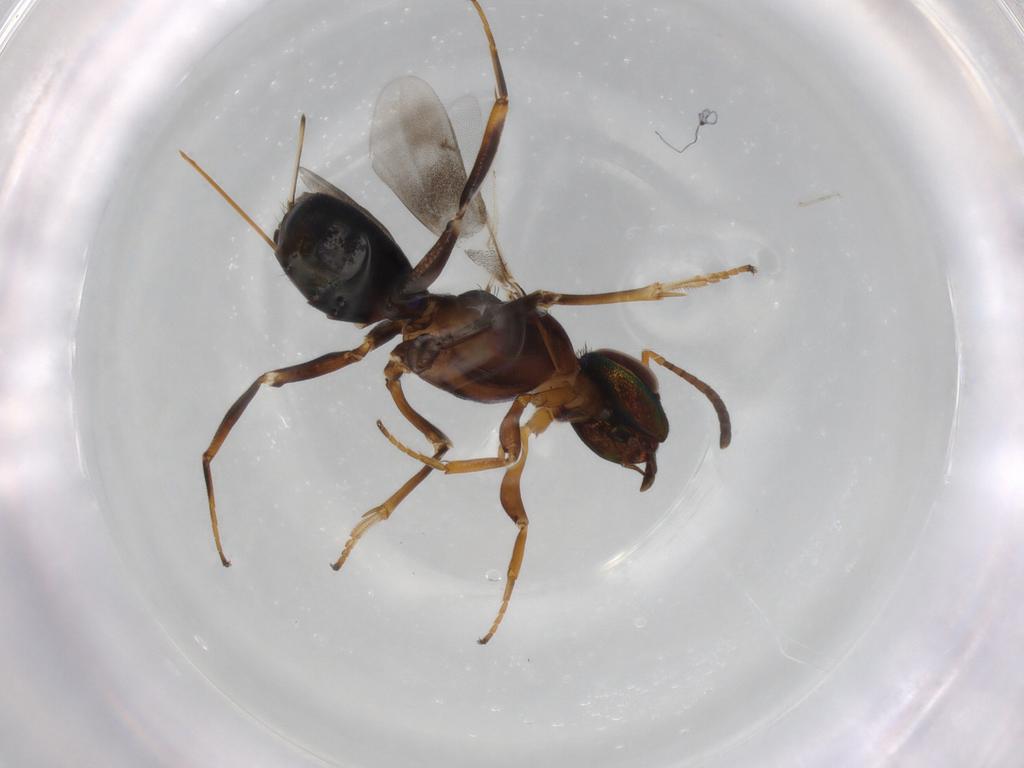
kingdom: Animalia
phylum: Arthropoda
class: Insecta
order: Hymenoptera
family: Eupelmidae
